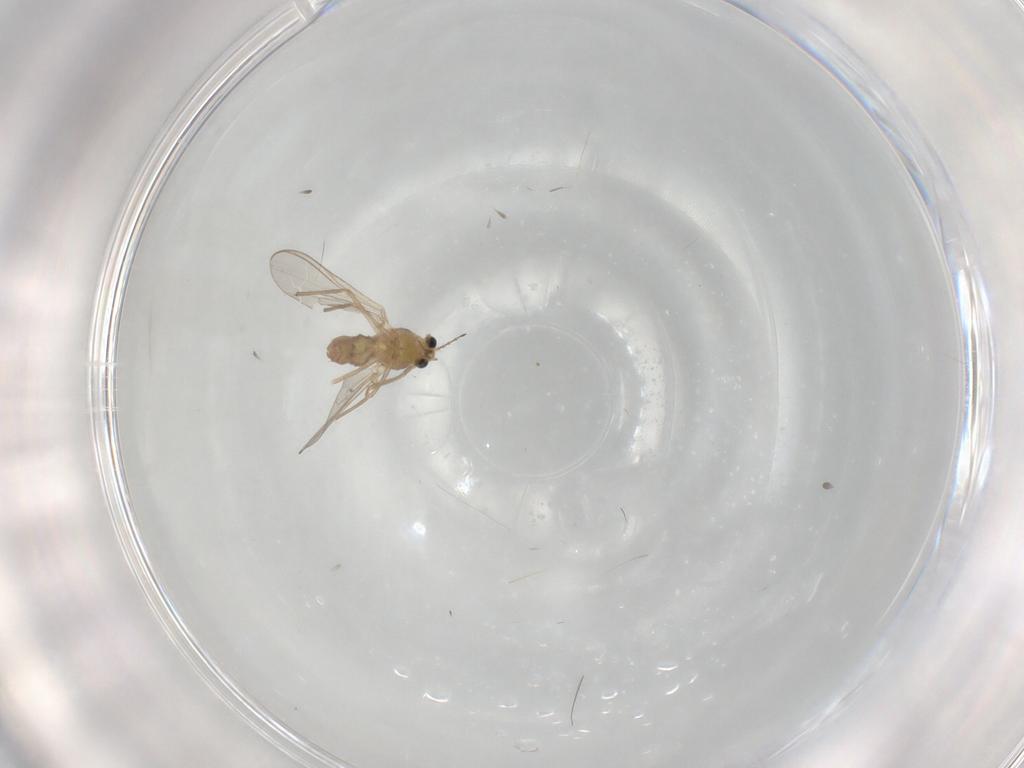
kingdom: Animalia
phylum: Arthropoda
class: Insecta
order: Diptera
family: Chironomidae
